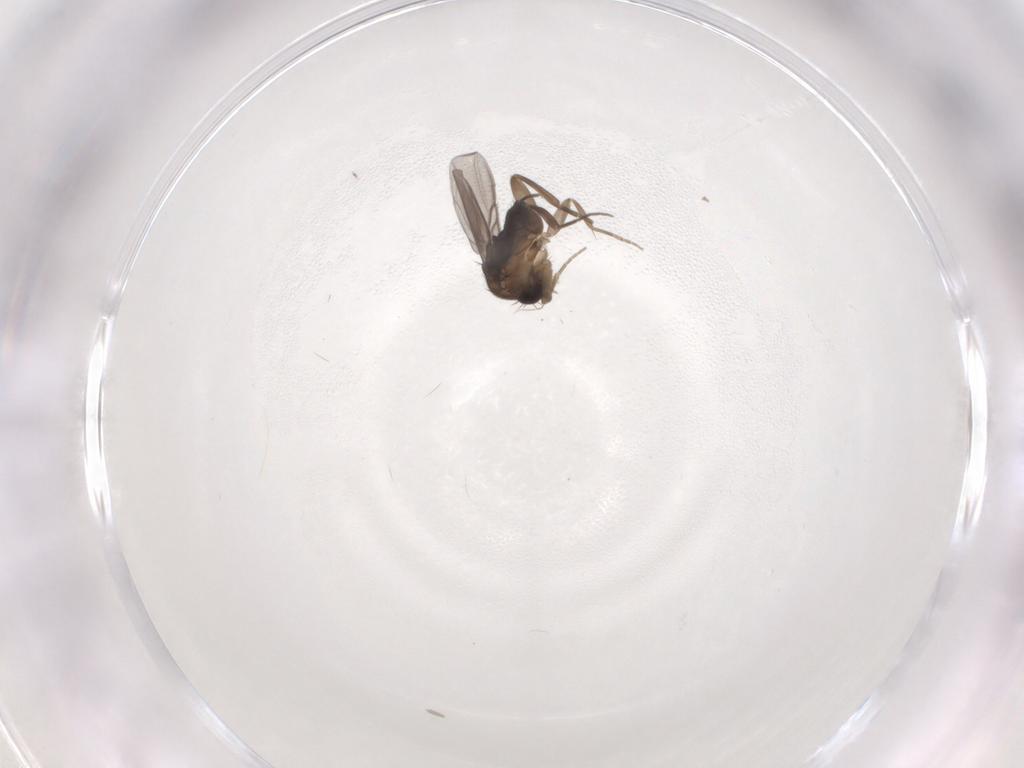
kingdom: Animalia
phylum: Arthropoda
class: Insecta
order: Diptera
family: Phoridae
